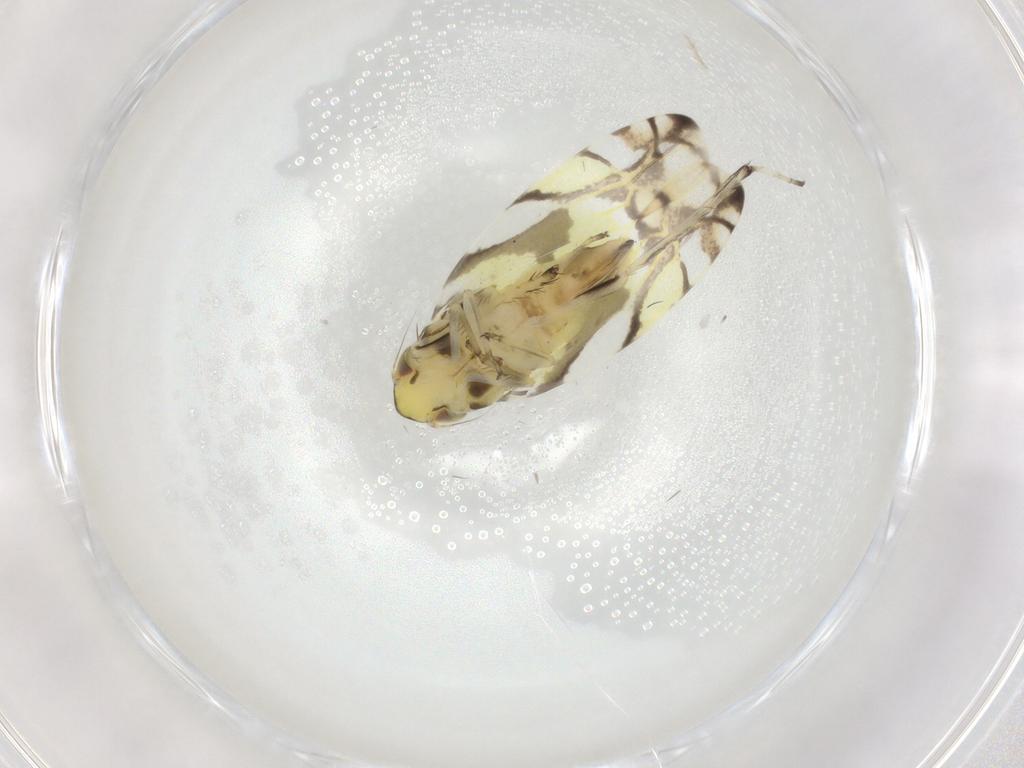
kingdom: Animalia
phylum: Arthropoda
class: Insecta
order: Hemiptera
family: Cicadellidae
